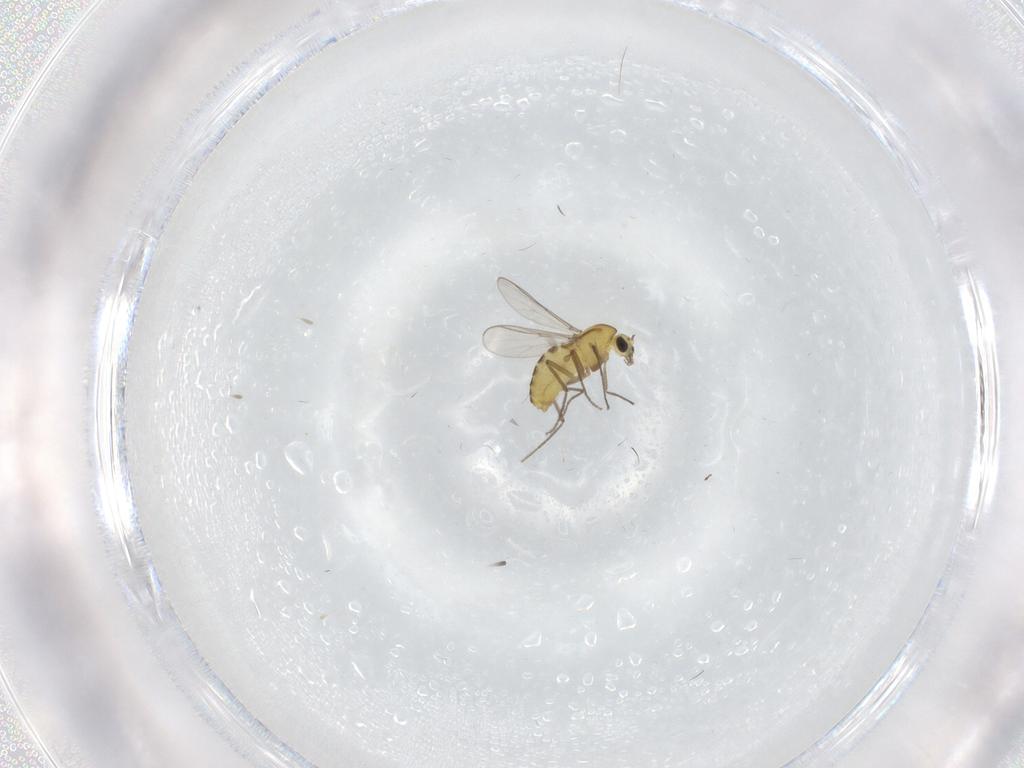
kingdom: Animalia
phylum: Arthropoda
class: Insecta
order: Diptera
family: Chironomidae
